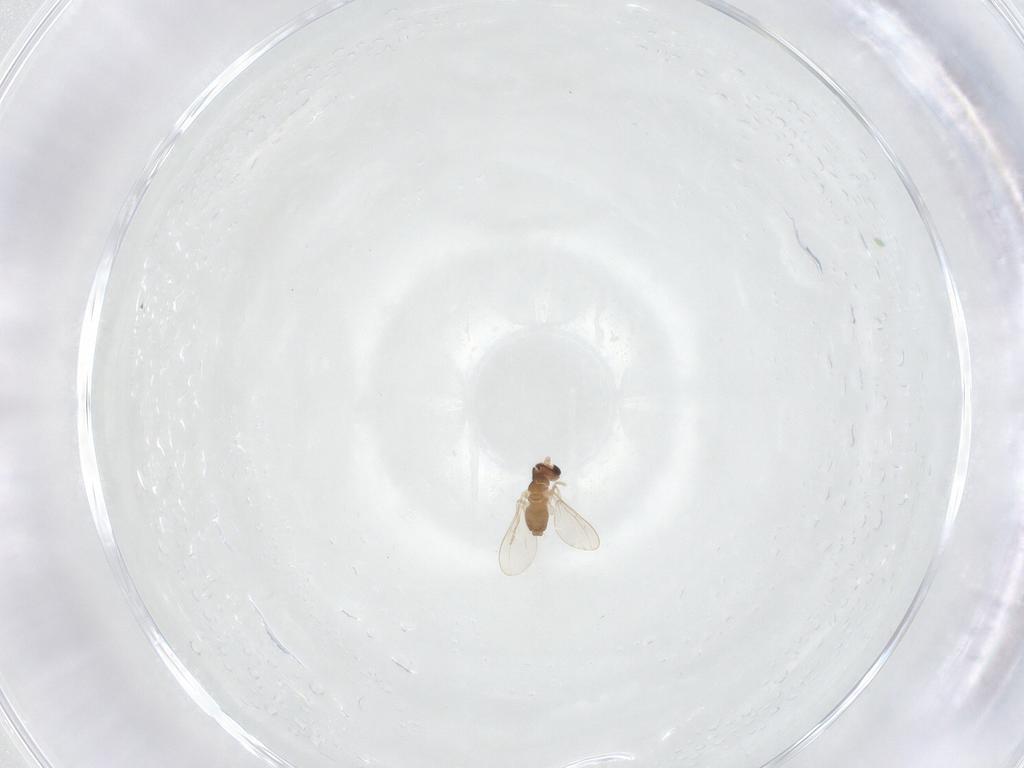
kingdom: Animalia
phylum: Arthropoda
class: Insecta
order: Diptera
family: Cecidomyiidae
